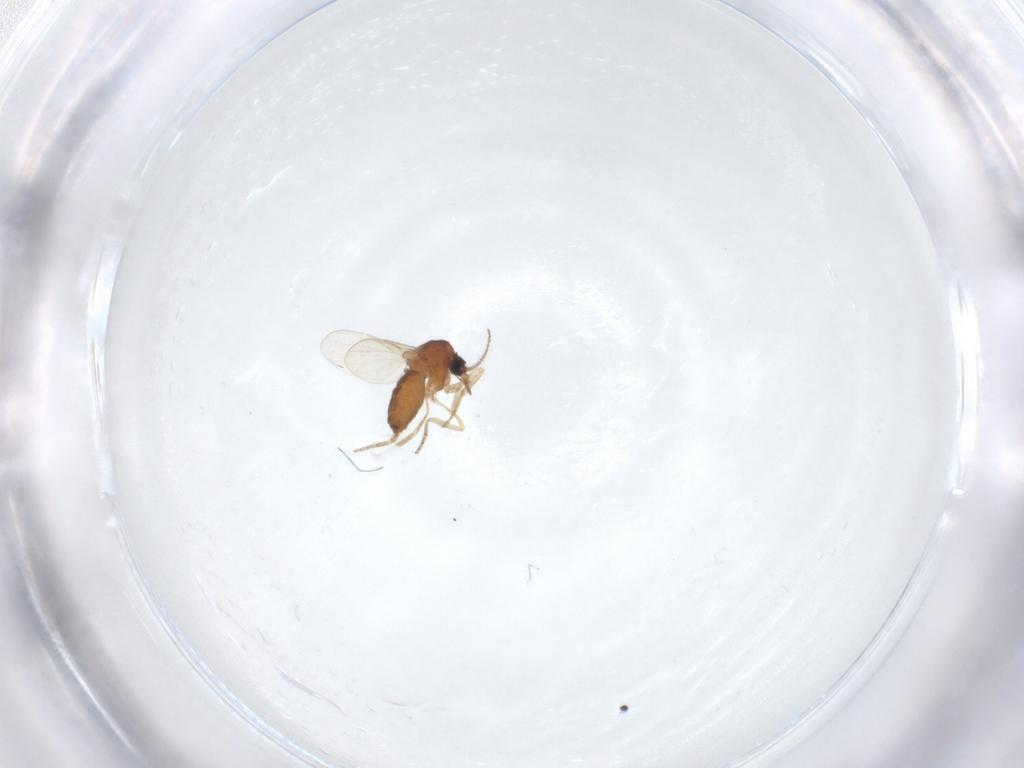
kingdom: Animalia
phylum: Arthropoda
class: Insecta
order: Diptera
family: Ceratopogonidae
